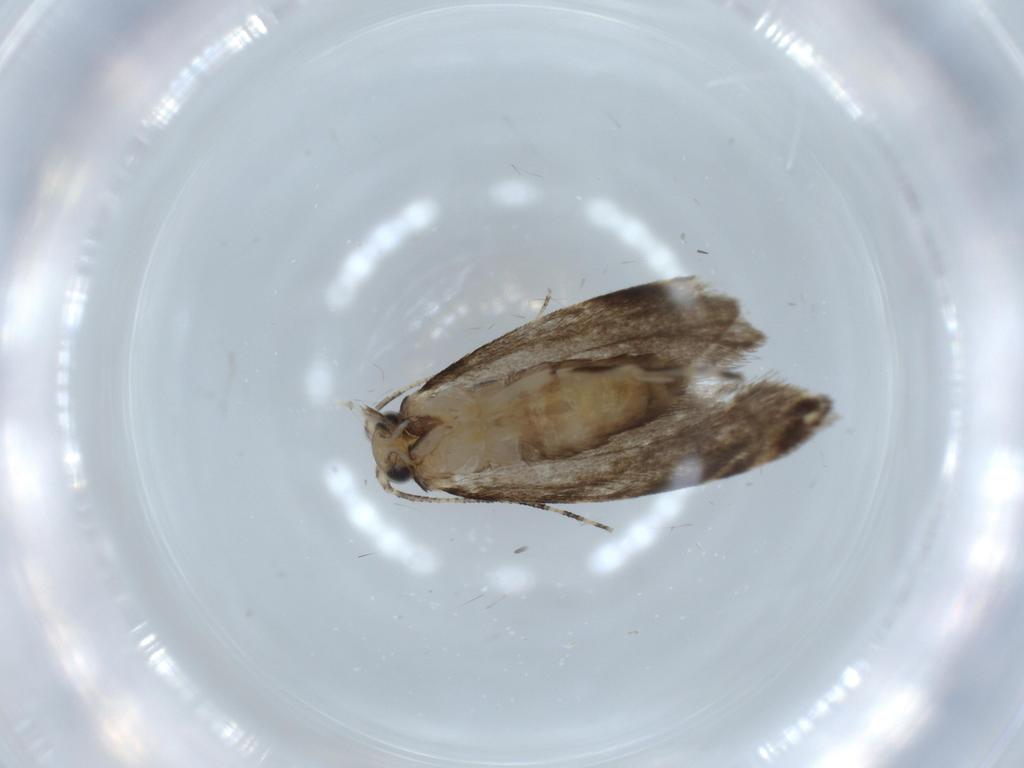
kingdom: Animalia
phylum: Arthropoda
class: Insecta
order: Lepidoptera
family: Tineidae
